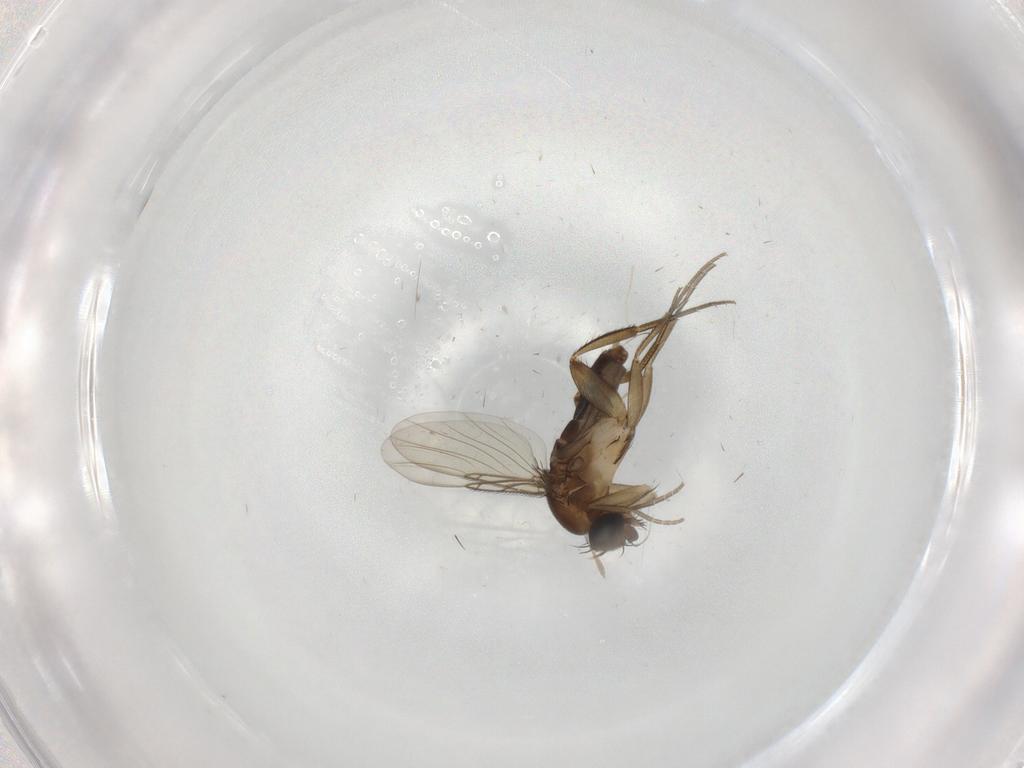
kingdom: Animalia
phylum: Arthropoda
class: Insecta
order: Diptera
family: Phoridae
